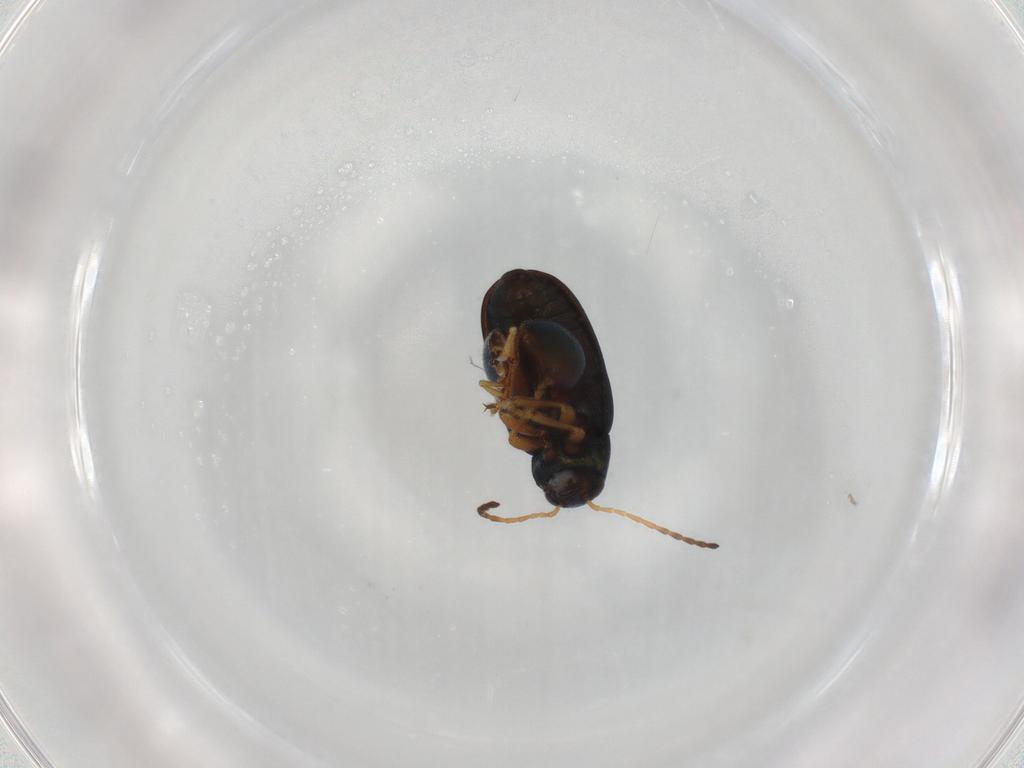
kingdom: Animalia
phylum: Arthropoda
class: Insecta
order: Coleoptera
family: Chrysomelidae
